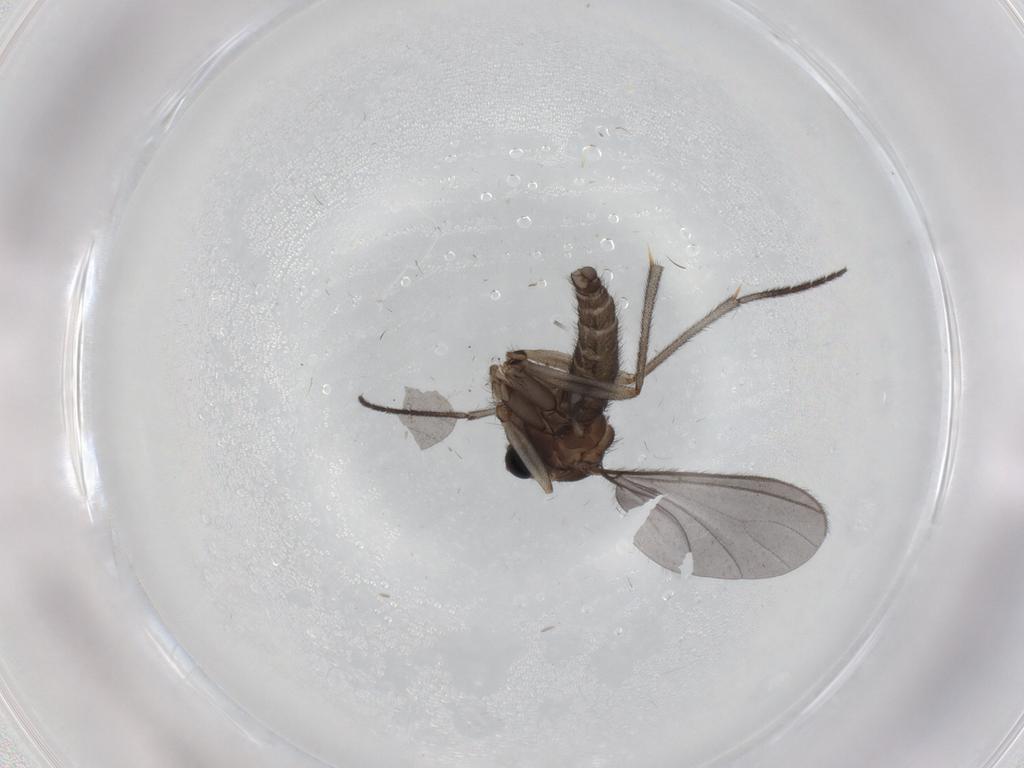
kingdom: Animalia
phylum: Arthropoda
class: Insecta
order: Diptera
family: Sciaridae
